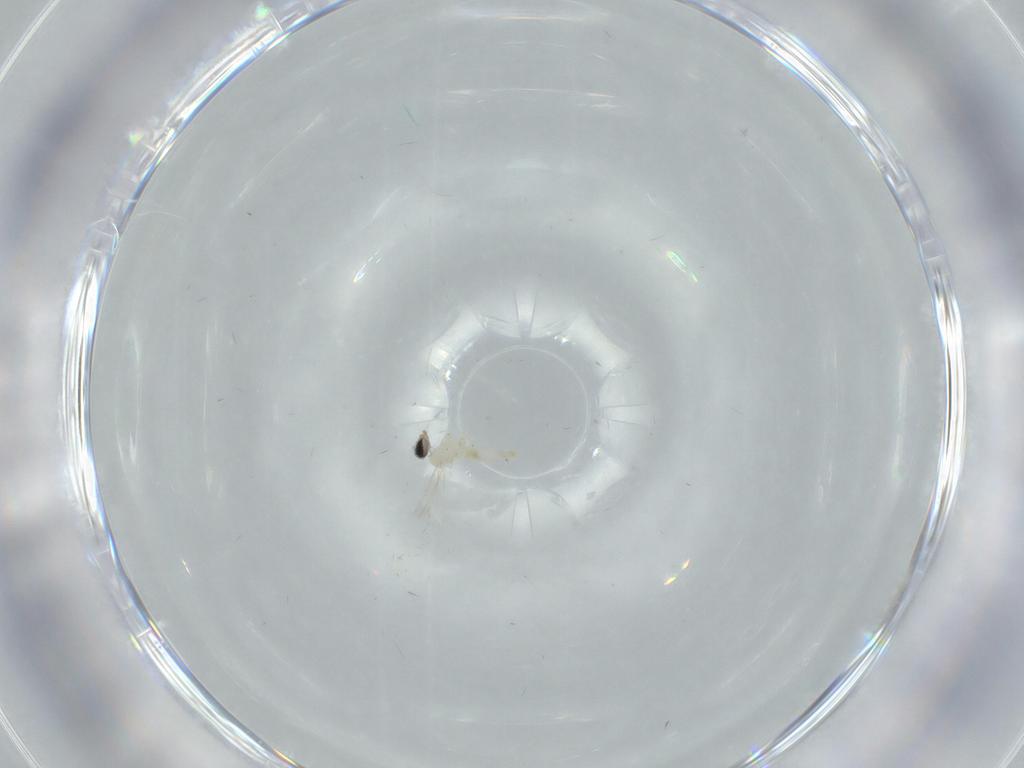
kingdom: Animalia
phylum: Arthropoda
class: Insecta
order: Diptera
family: Cecidomyiidae
